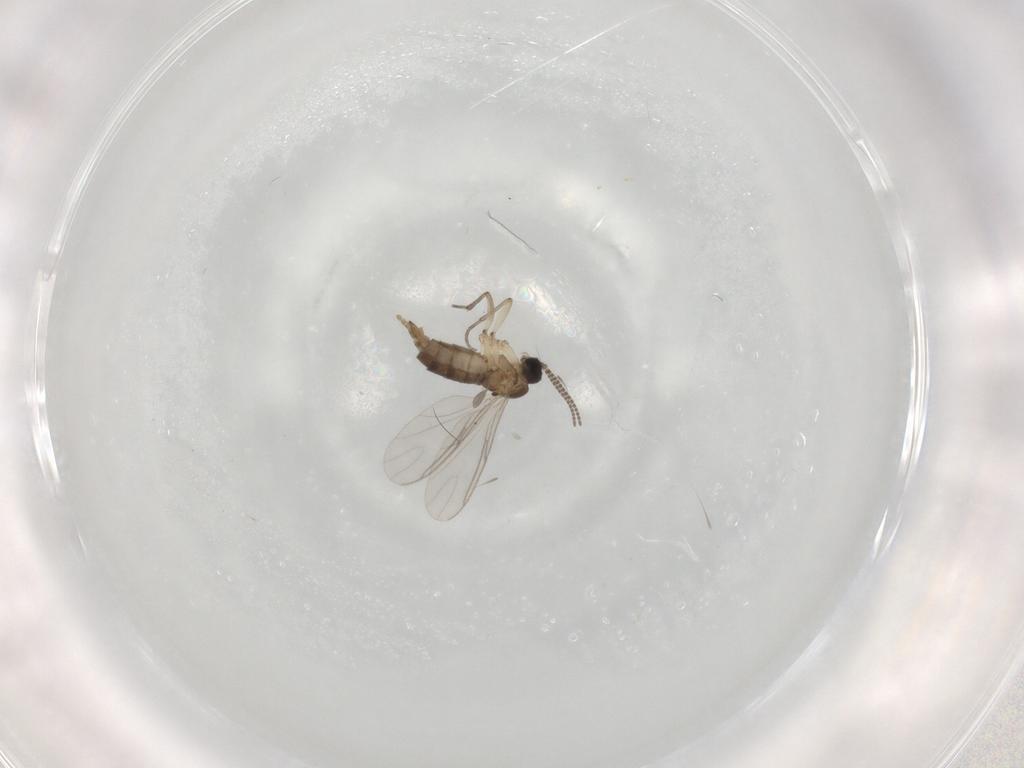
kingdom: Animalia
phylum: Arthropoda
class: Insecta
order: Diptera
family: Sciaridae
